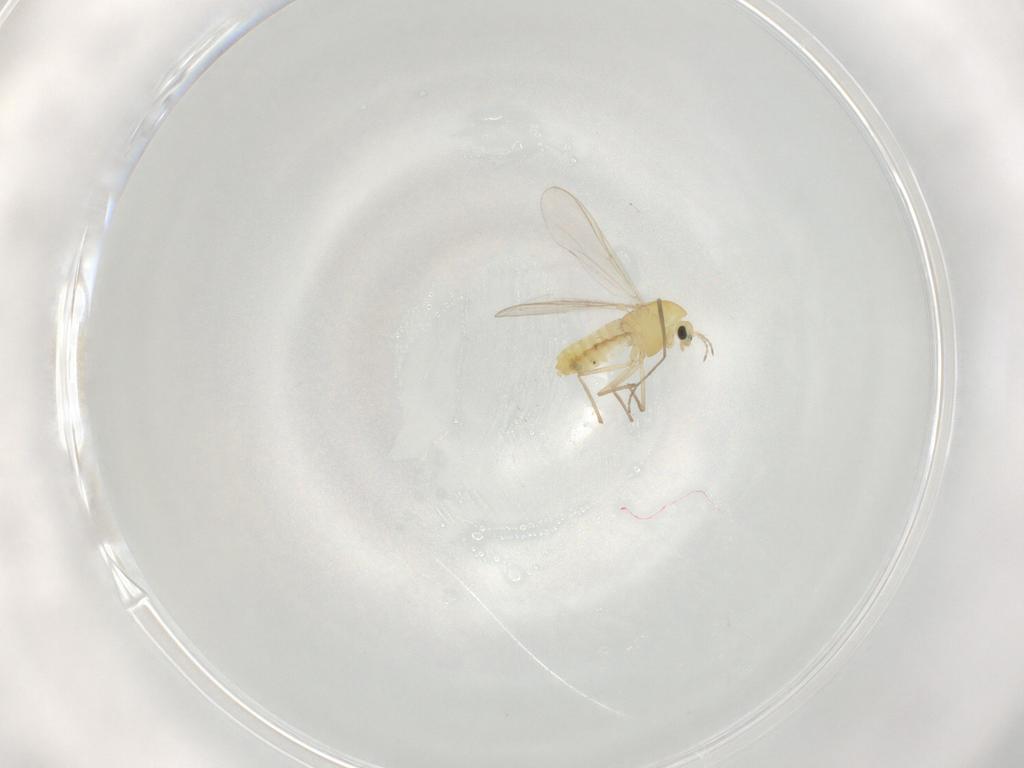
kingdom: Animalia
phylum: Arthropoda
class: Insecta
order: Diptera
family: Chironomidae
